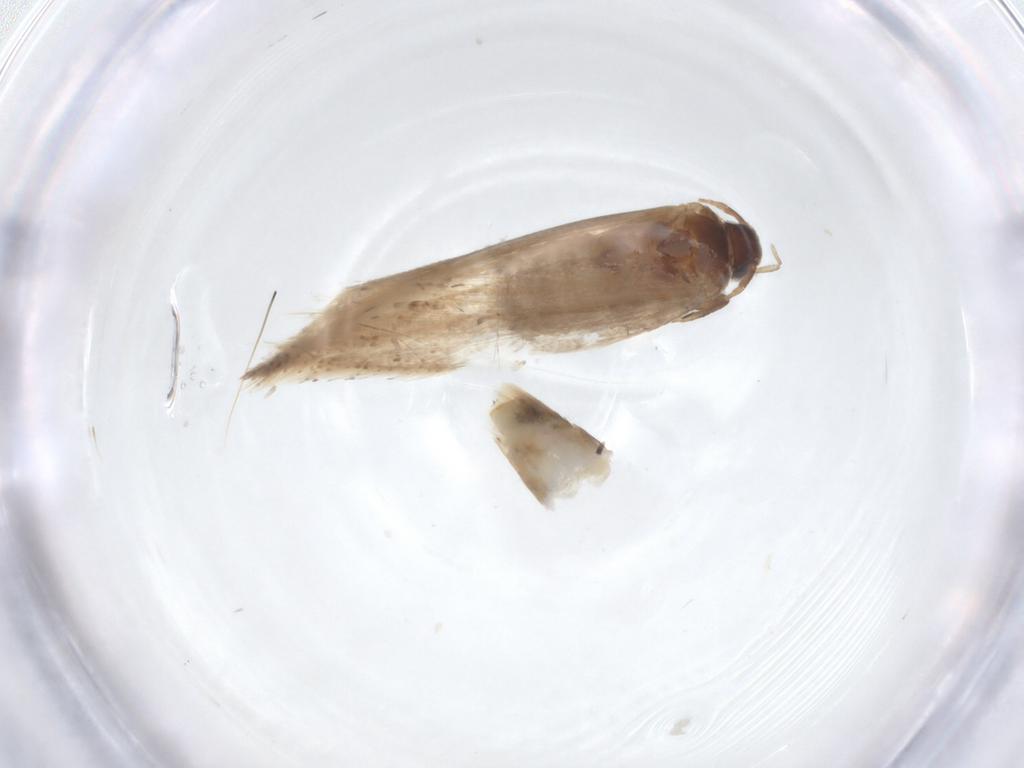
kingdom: Animalia
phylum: Arthropoda
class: Insecta
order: Lepidoptera
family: Gelechiidae
